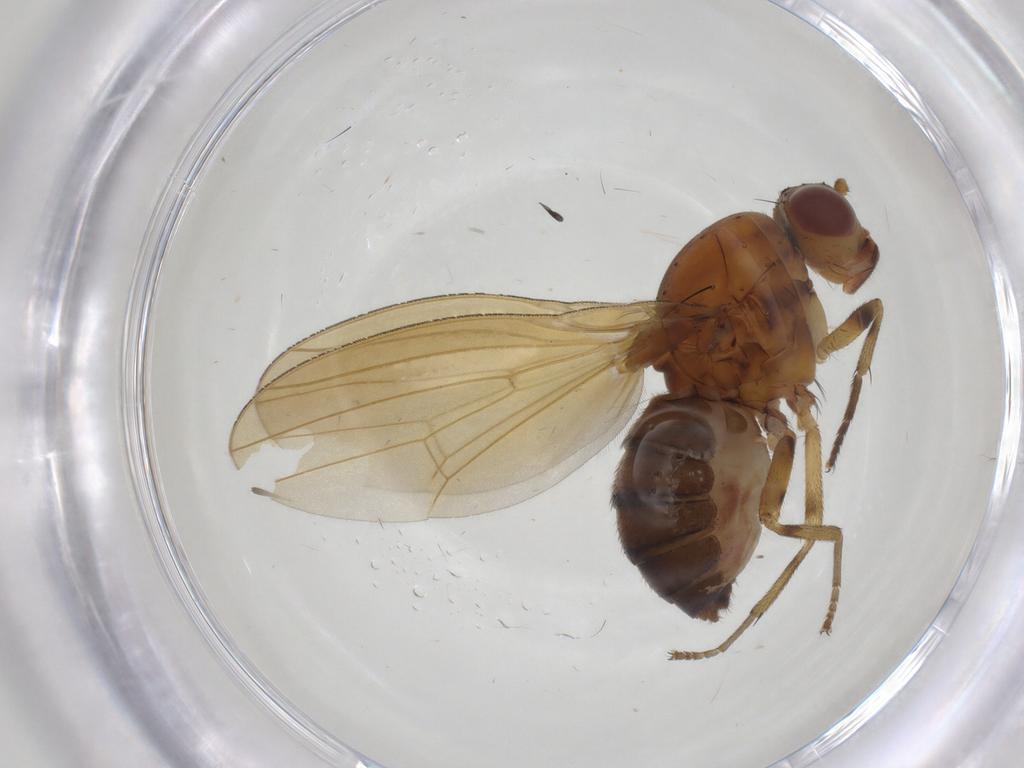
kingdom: Animalia
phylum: Arthropoda
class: Insecta
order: Diptera
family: Lauxaniidae
